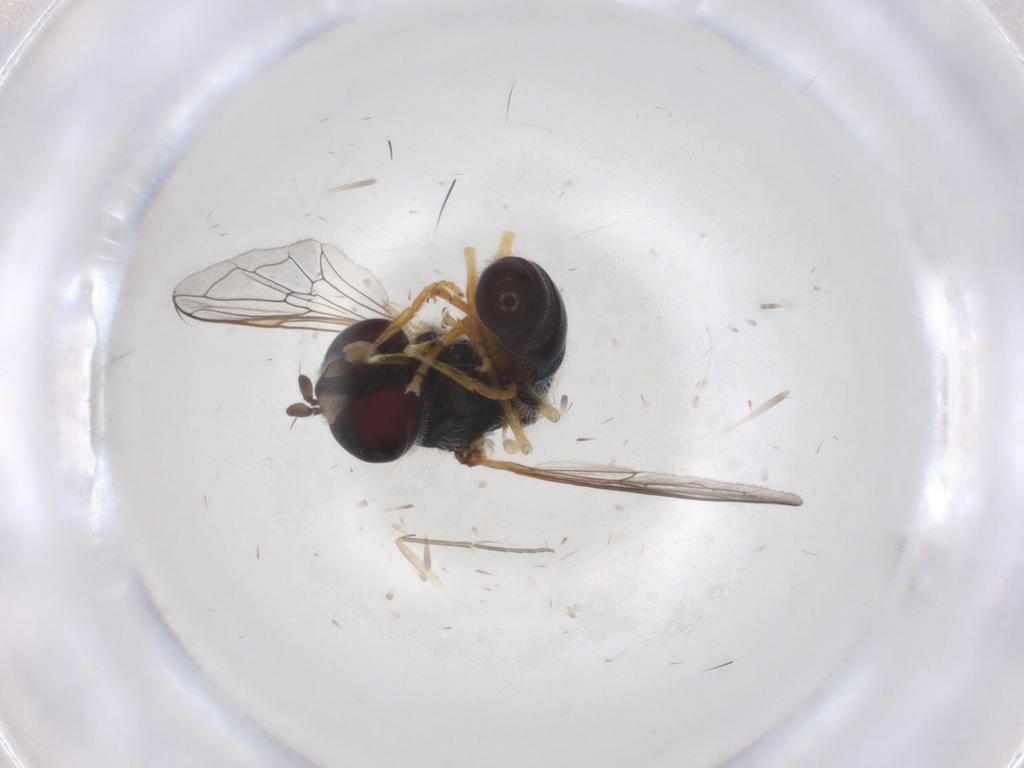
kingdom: Animalia
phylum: Arthropoda
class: Insecta
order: Diptera
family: Syrphidae
